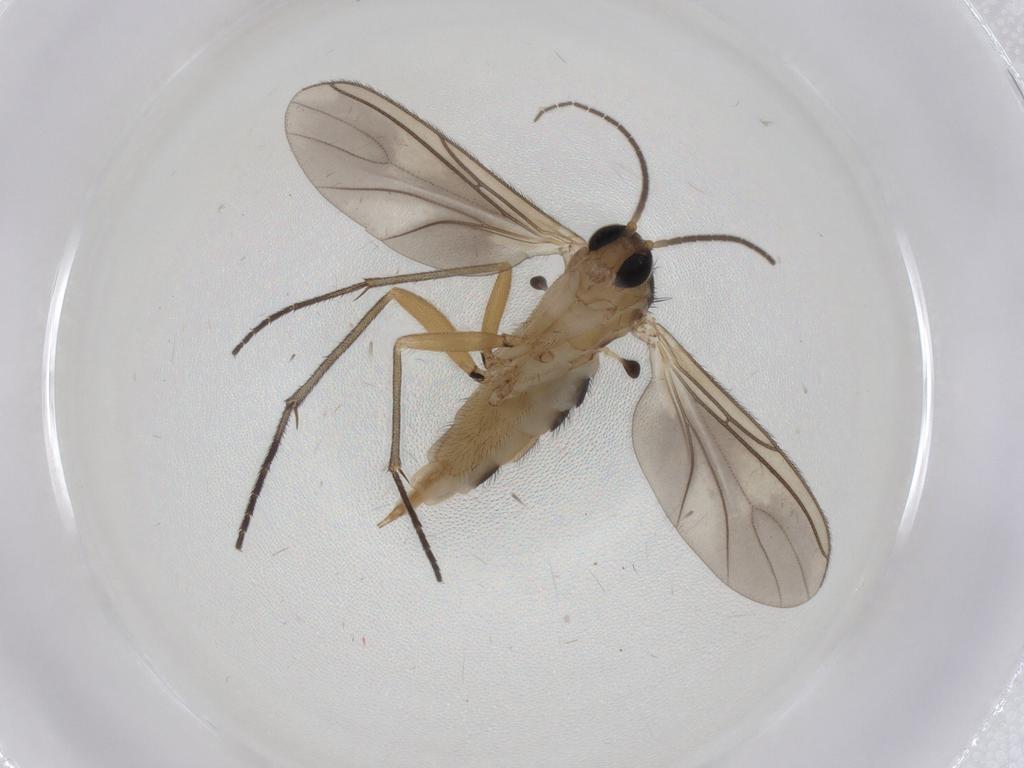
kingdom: Animalia
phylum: Arthropoda
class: Insecta
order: Diptera
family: Sciaridae
